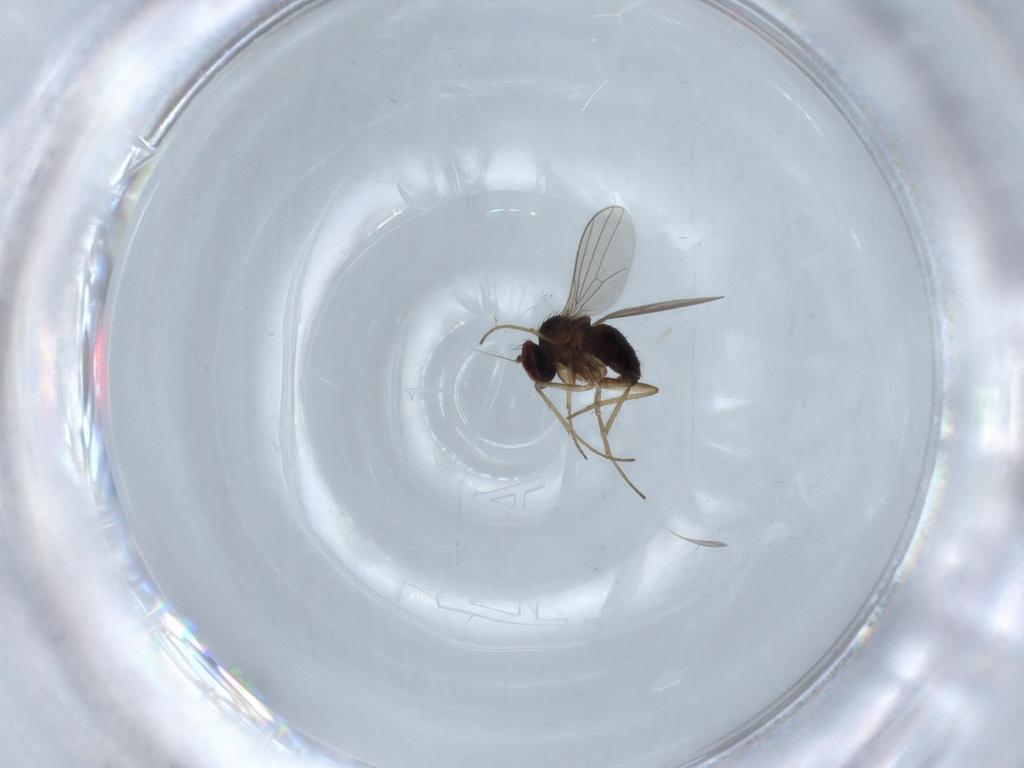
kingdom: Animalia
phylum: Arthropoda
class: Insecta
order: Diptera
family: Dolichopodidae
